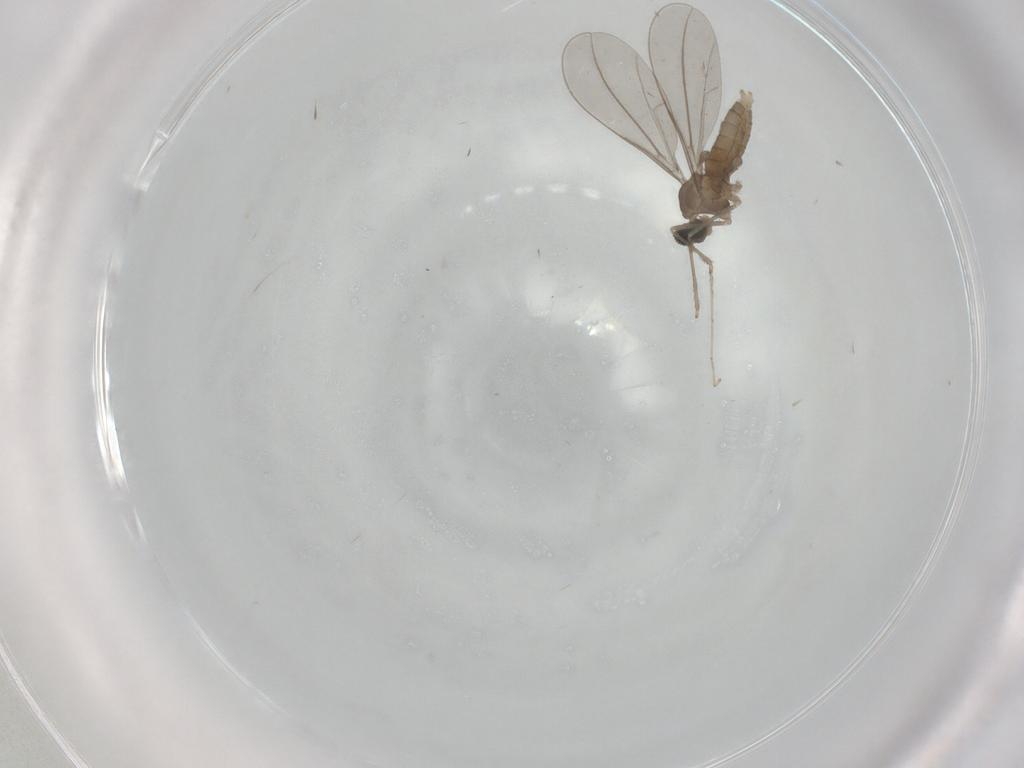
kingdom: Animalia
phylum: Arthropoda
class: Insecta
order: Diptera
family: Cecidomyiidae
